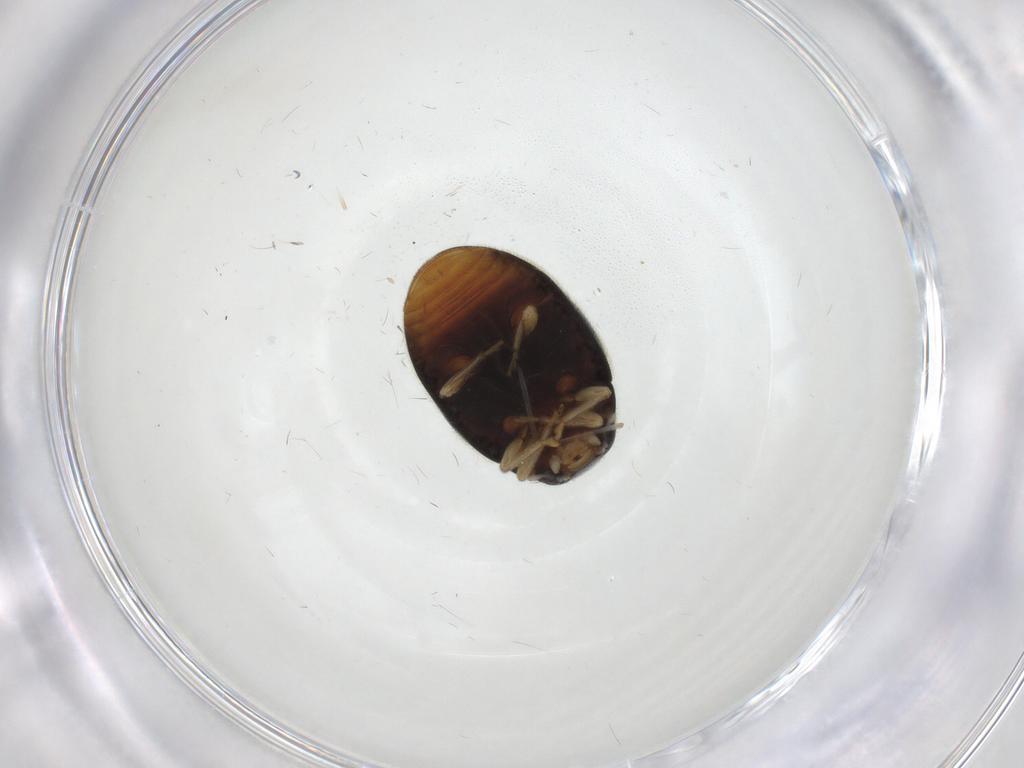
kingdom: Animalia
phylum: Arthropoda
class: Insecta
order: Coleoptera
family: Coccinellidae
